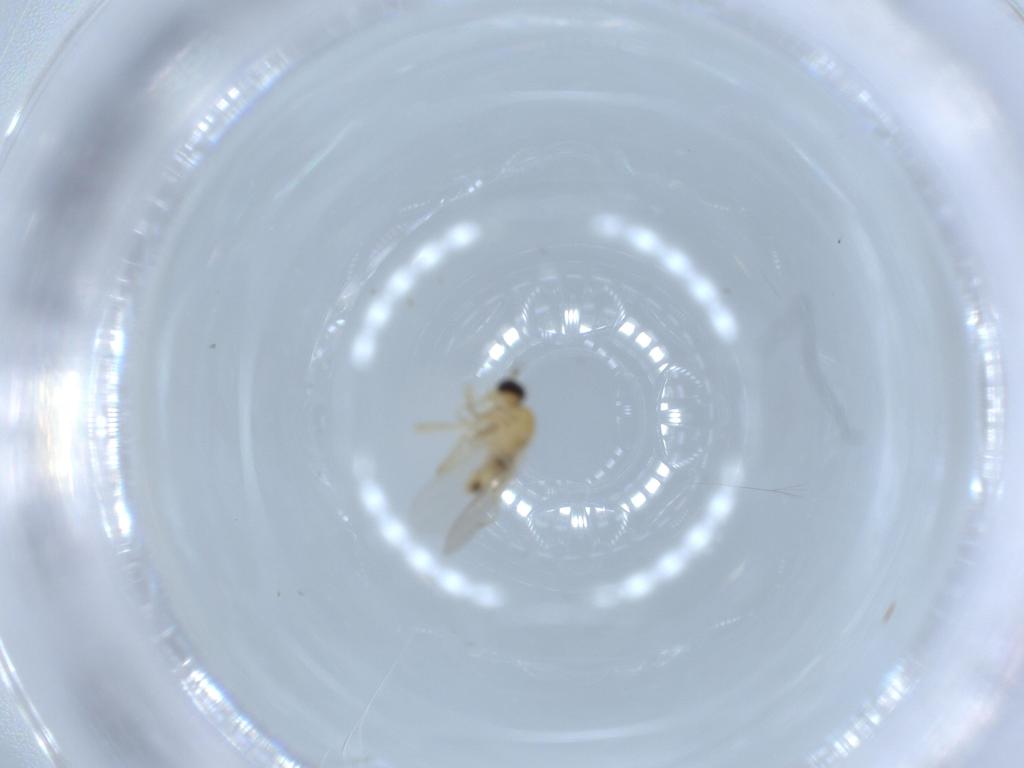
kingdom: Animalia
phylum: Arthropoda
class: Insecta
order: Diptera
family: Hybotidae
